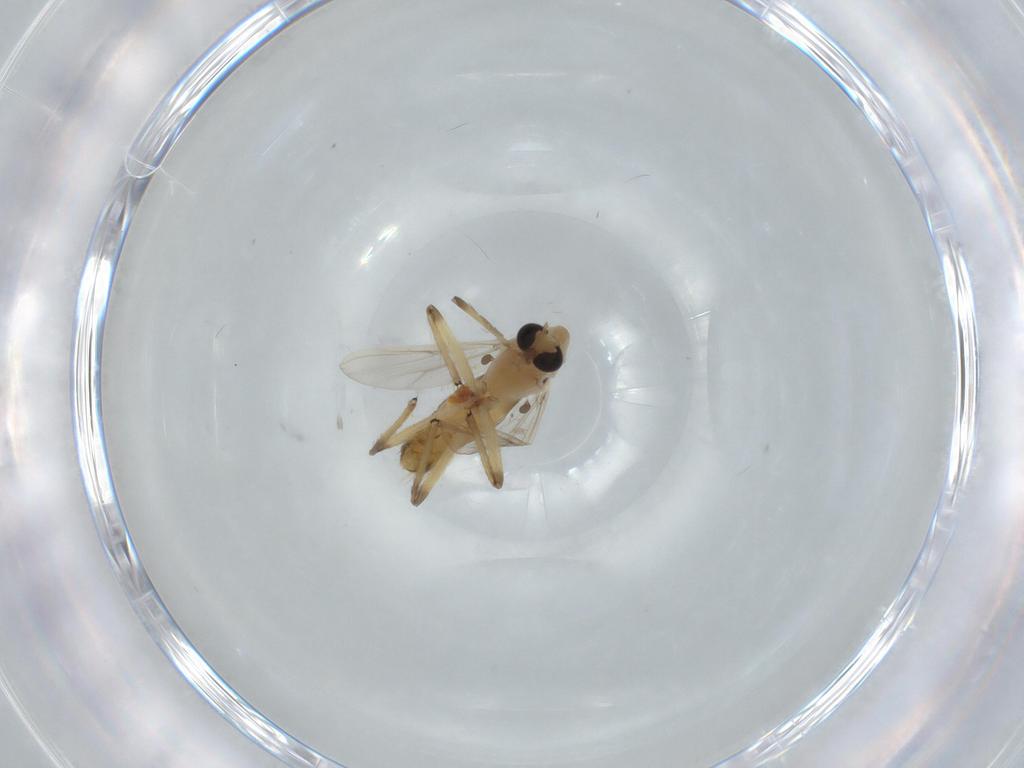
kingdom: Animalia
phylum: Arthropoda
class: Insecta
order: Diptera
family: Chironomidae
